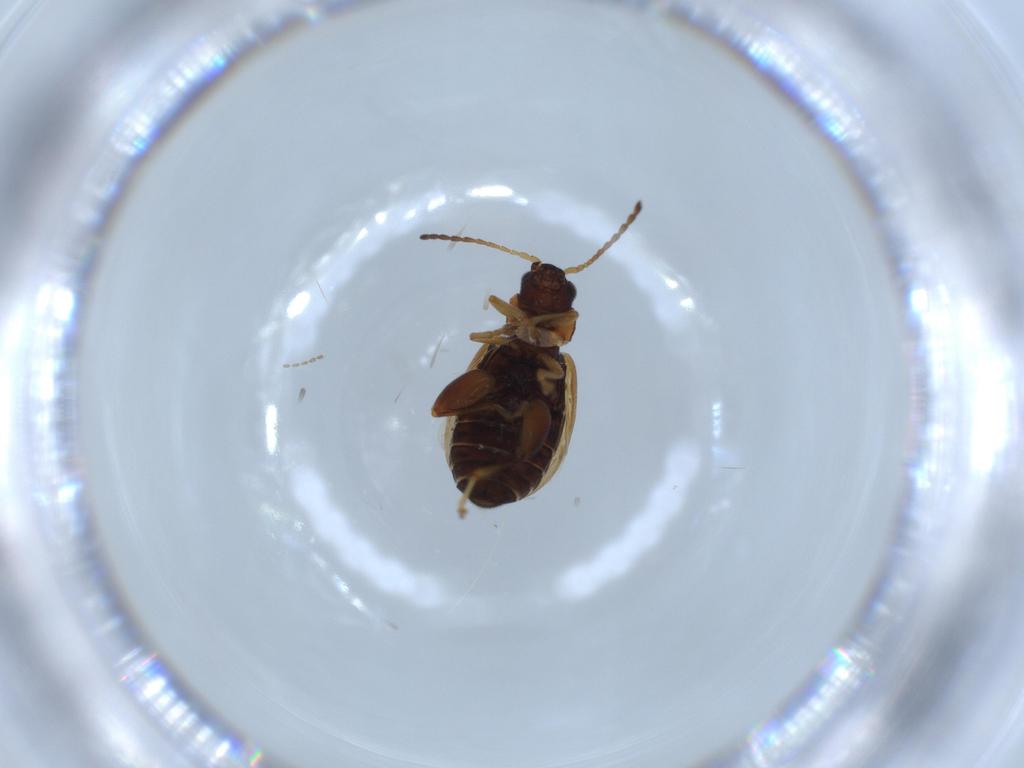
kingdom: Animalia
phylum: Arthropoda
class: Insecta
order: Coleoptera
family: Chrysomelidae
